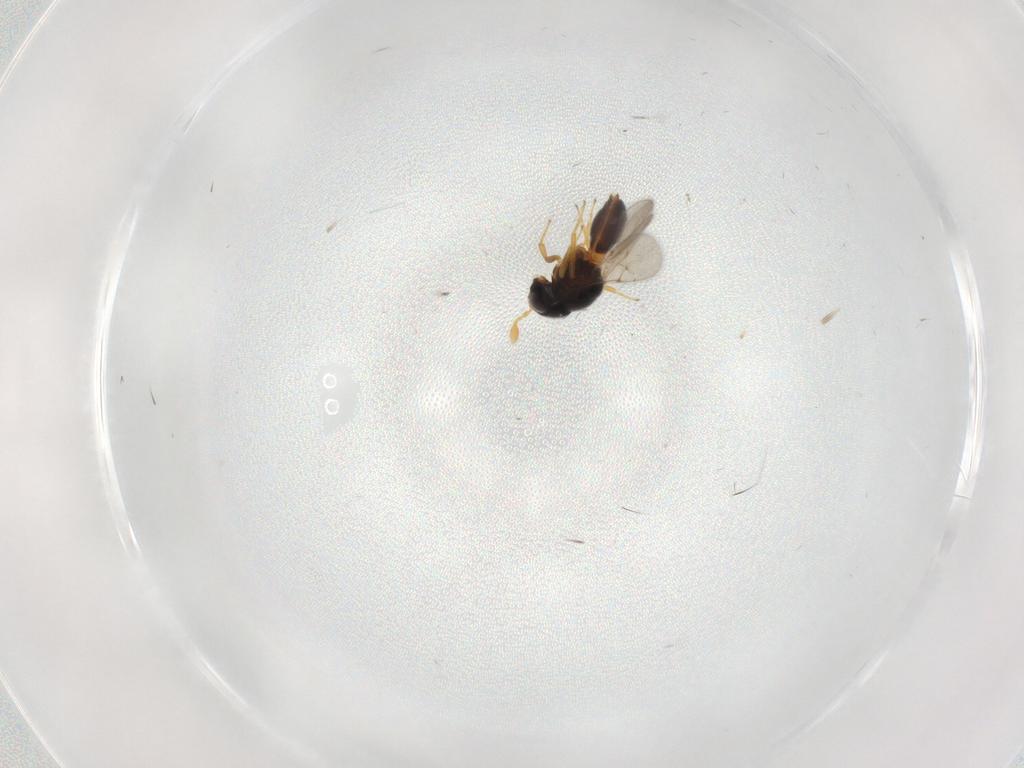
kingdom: Animalia
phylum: Arthropoda
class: Insecta
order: Hymenoptera
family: Scelionidae
